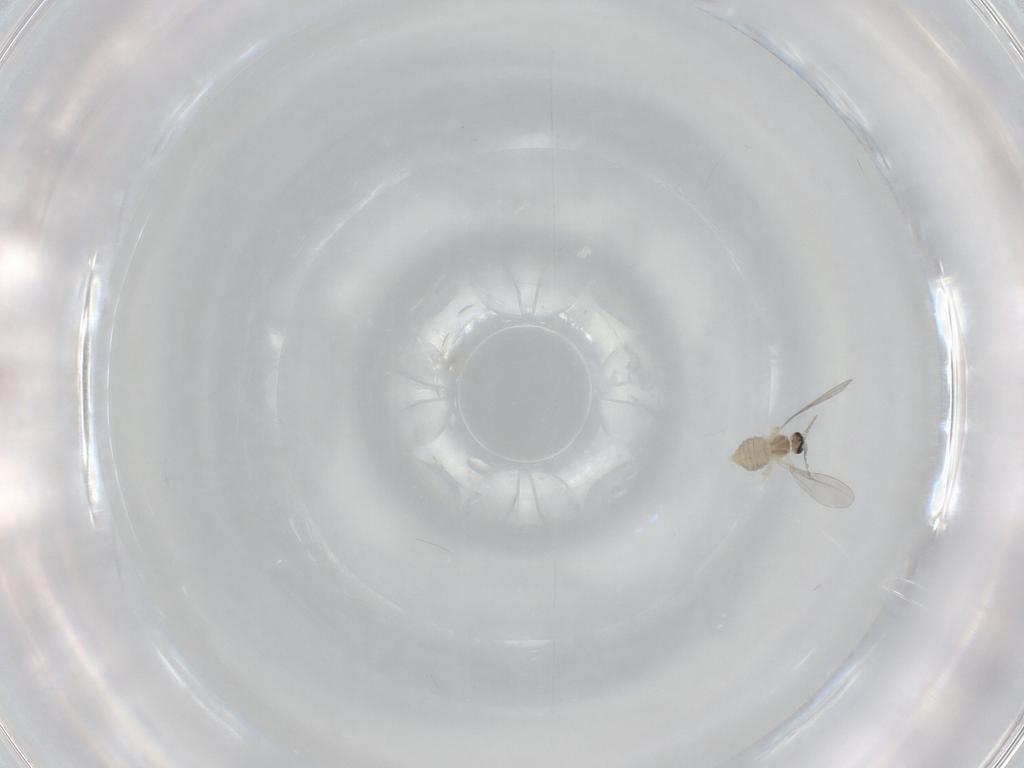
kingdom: Animalia
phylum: Arthropoda
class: Insecta
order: Diptera
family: Cecidomyiidae
